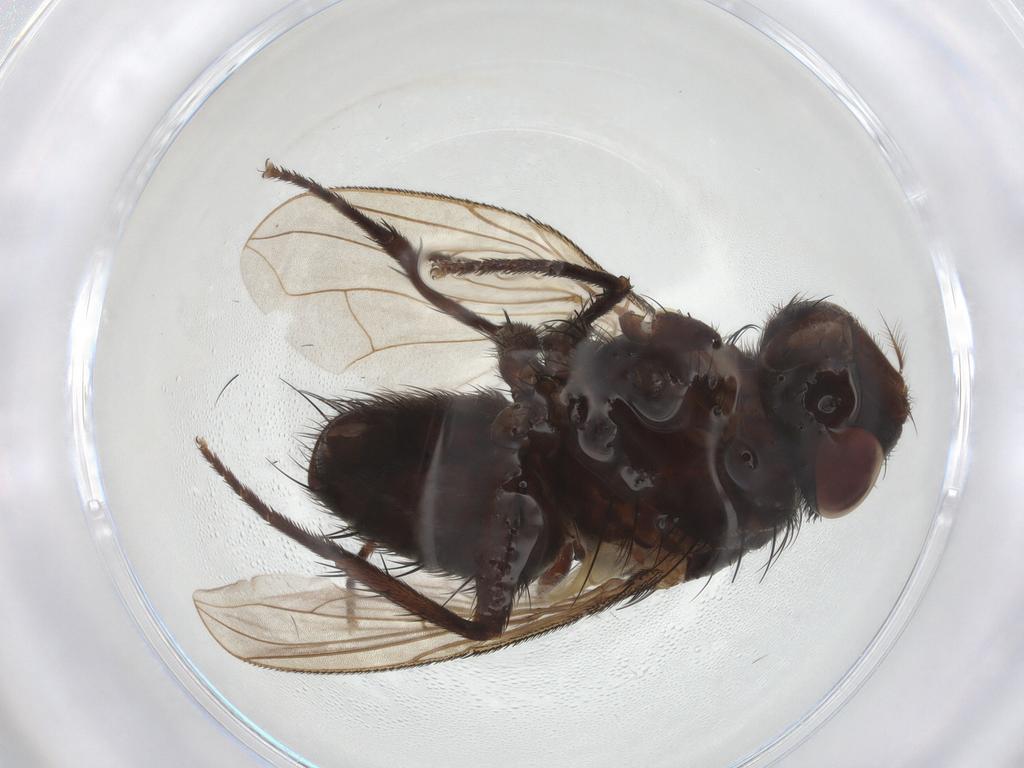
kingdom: Animalia
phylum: Arthropoda
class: Insecta
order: Diptera
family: Calliphoridae
